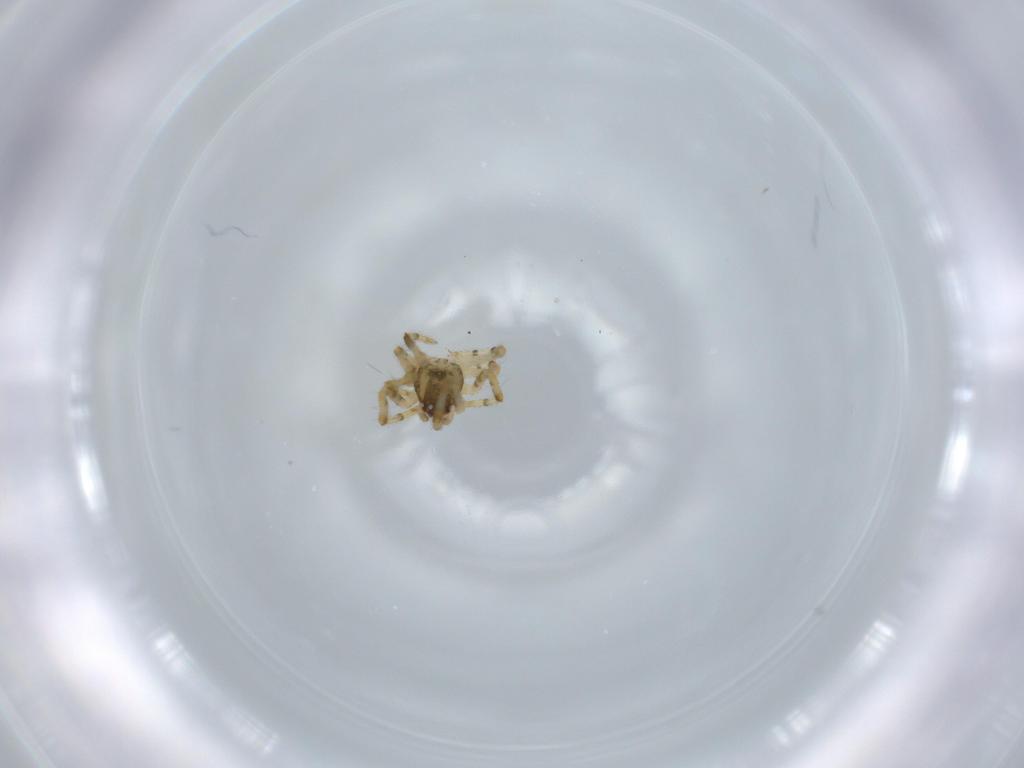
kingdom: Animalia
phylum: Arthropoda
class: Arachnida
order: Araneae
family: Theridiidae
